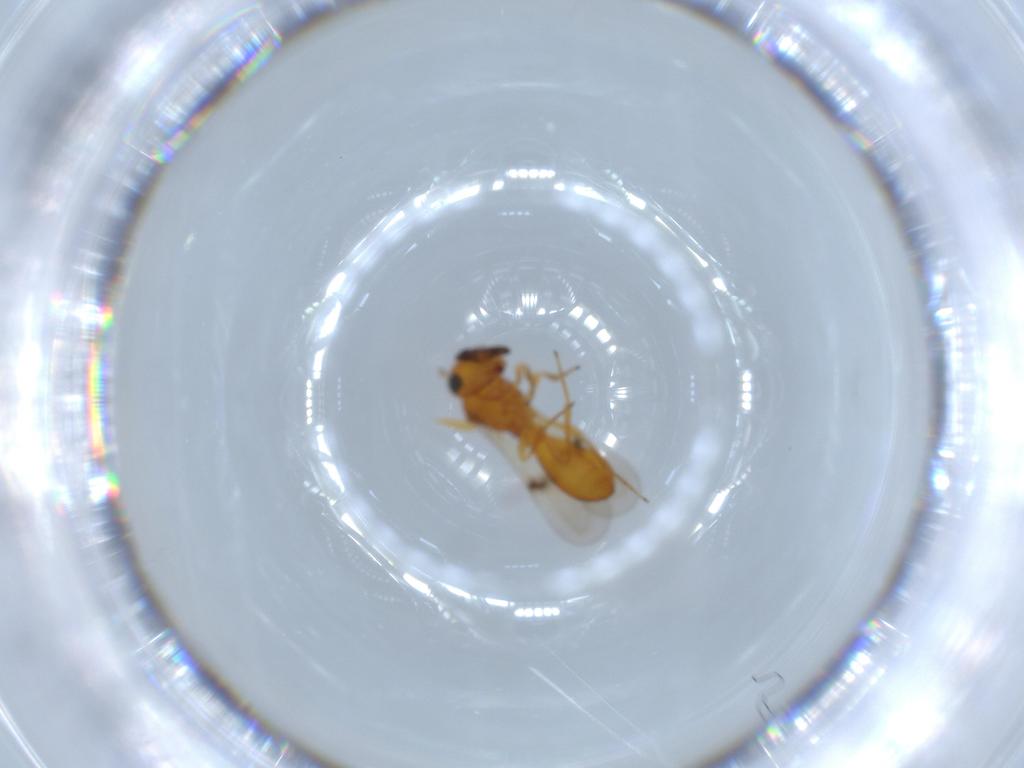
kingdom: Animalia
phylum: Arthropoda
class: Insecta
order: Hymenoptera
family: Scelionidae
